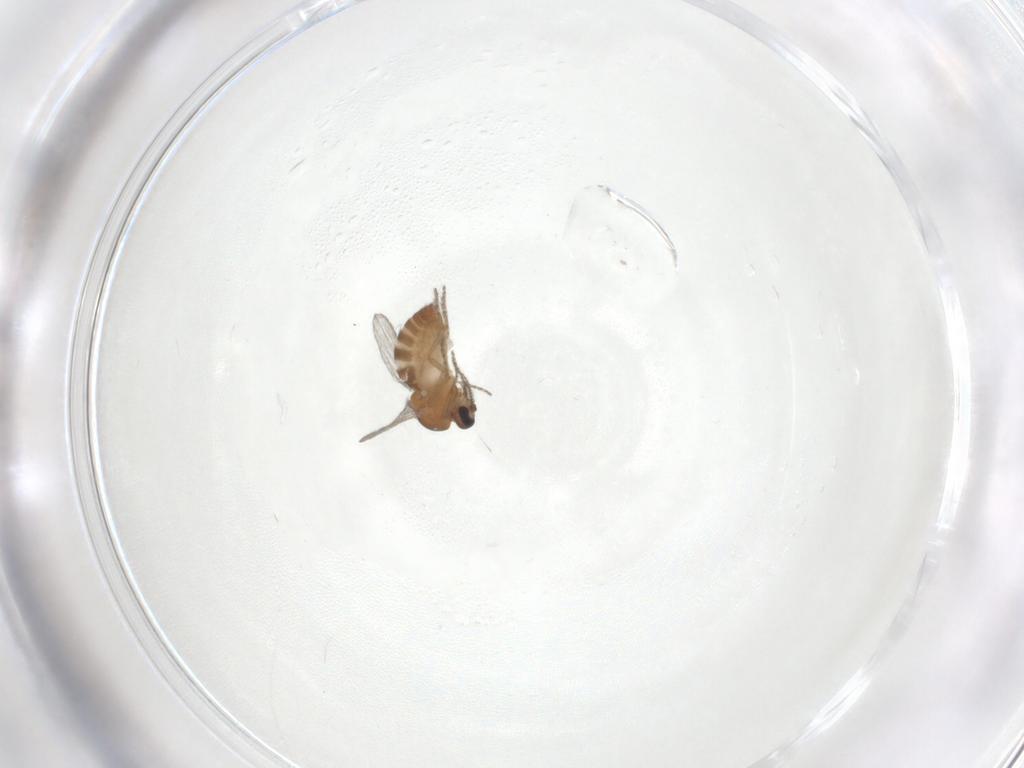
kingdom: Animalia
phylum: Arthropoda
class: Insecta
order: Diptera
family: Ceratopogonidae
